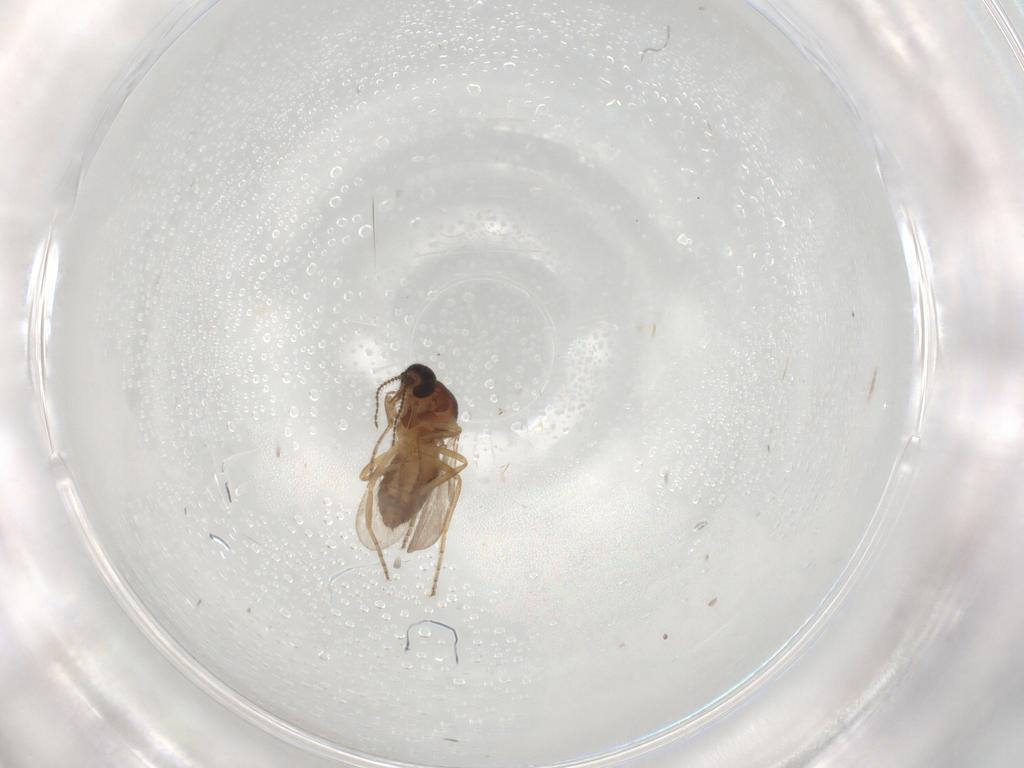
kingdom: Animalia
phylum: Arthropoda
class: Insecta
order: Diptera
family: Ceratopogonidae
